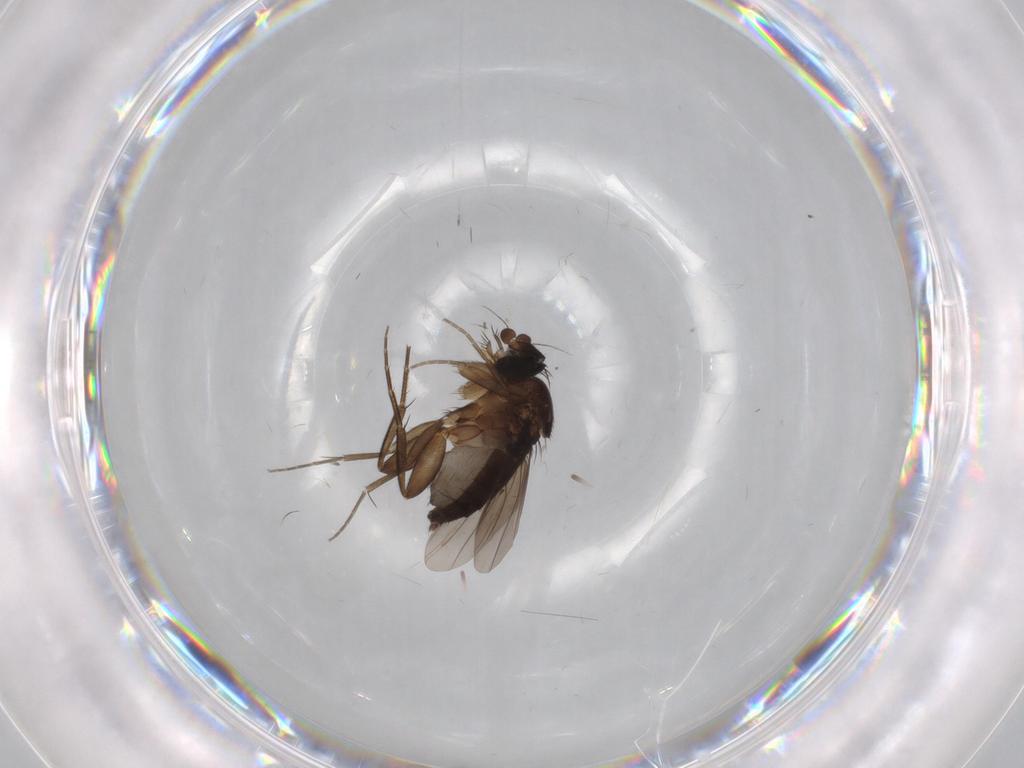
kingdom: Animalia
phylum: Arthropoda
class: Insecta
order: Diptera
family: Phoridae
